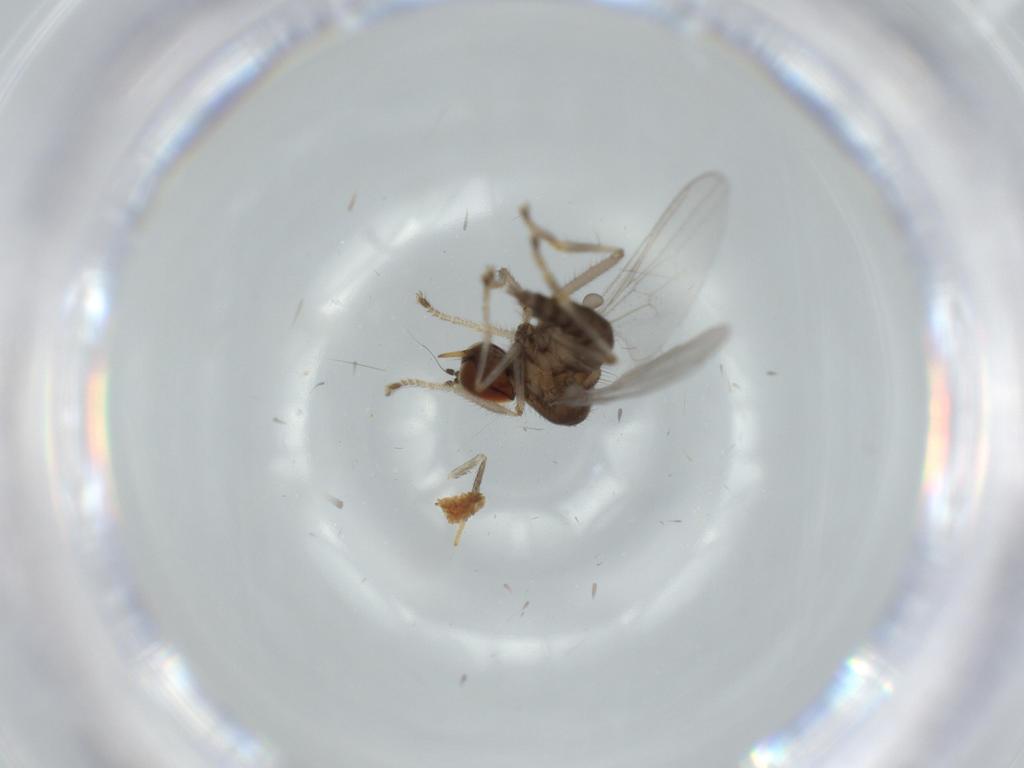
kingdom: Animalia
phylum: Arthropoda
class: Insecta
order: Diptera
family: Hybotidae
